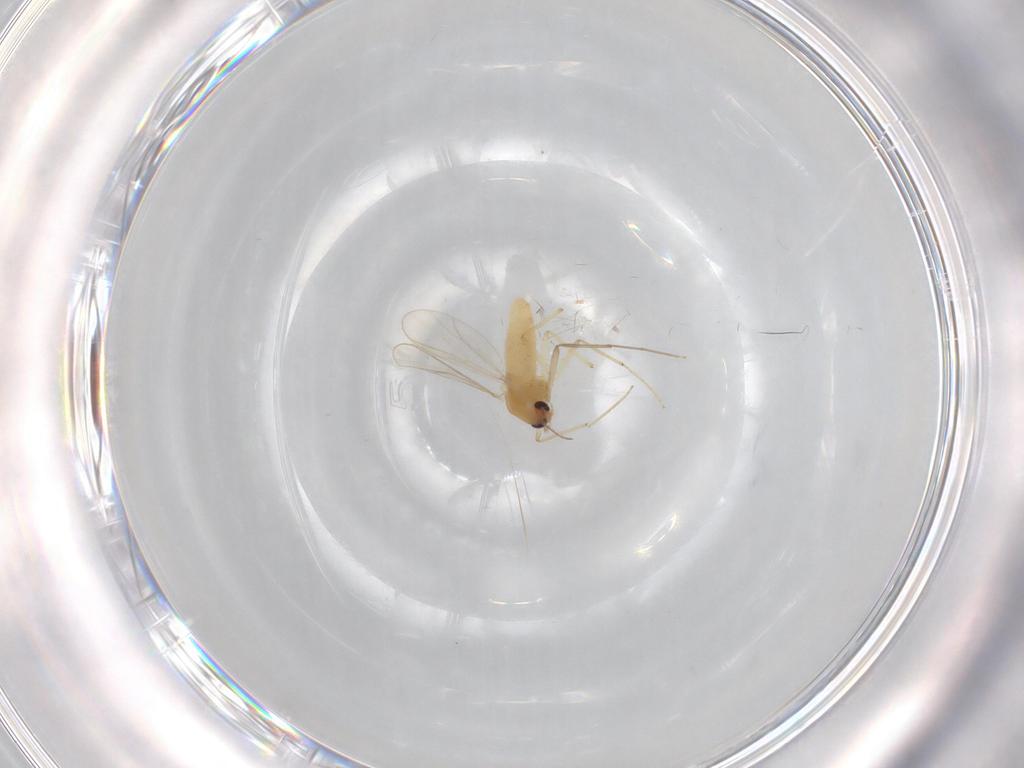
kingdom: Animalia
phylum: Arthropoda
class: Insecta
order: Diptera
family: Chironomidae
